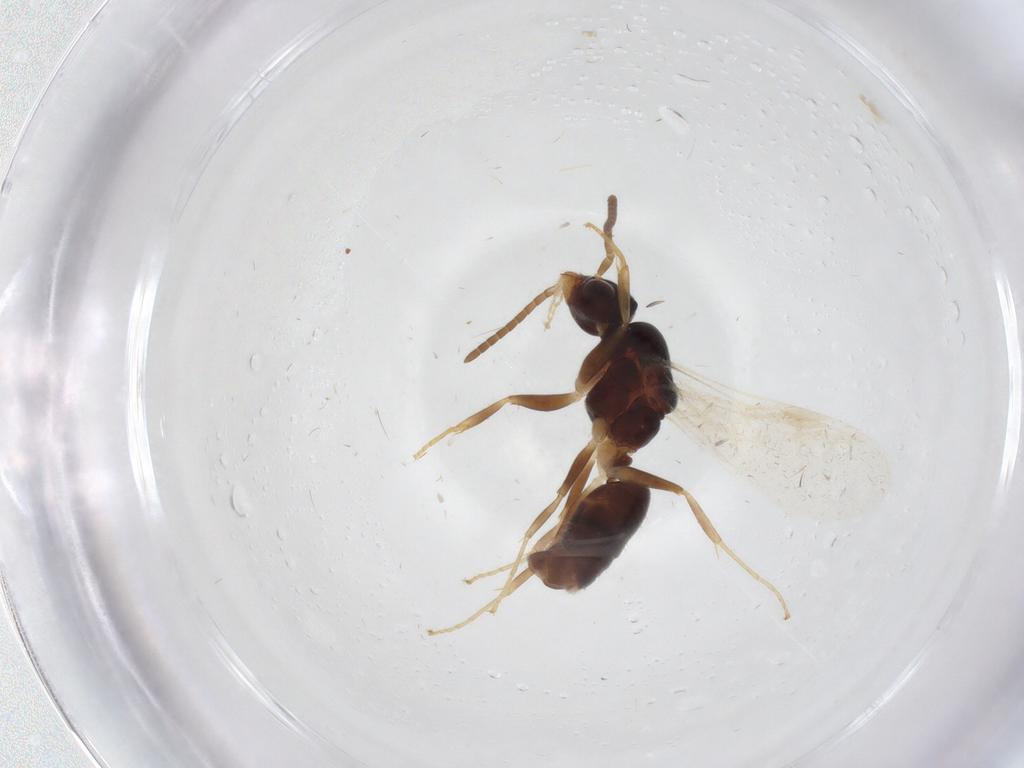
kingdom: Animalia
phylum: Arthropoda
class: Insecta
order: Hymenoptera
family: Formicidae
